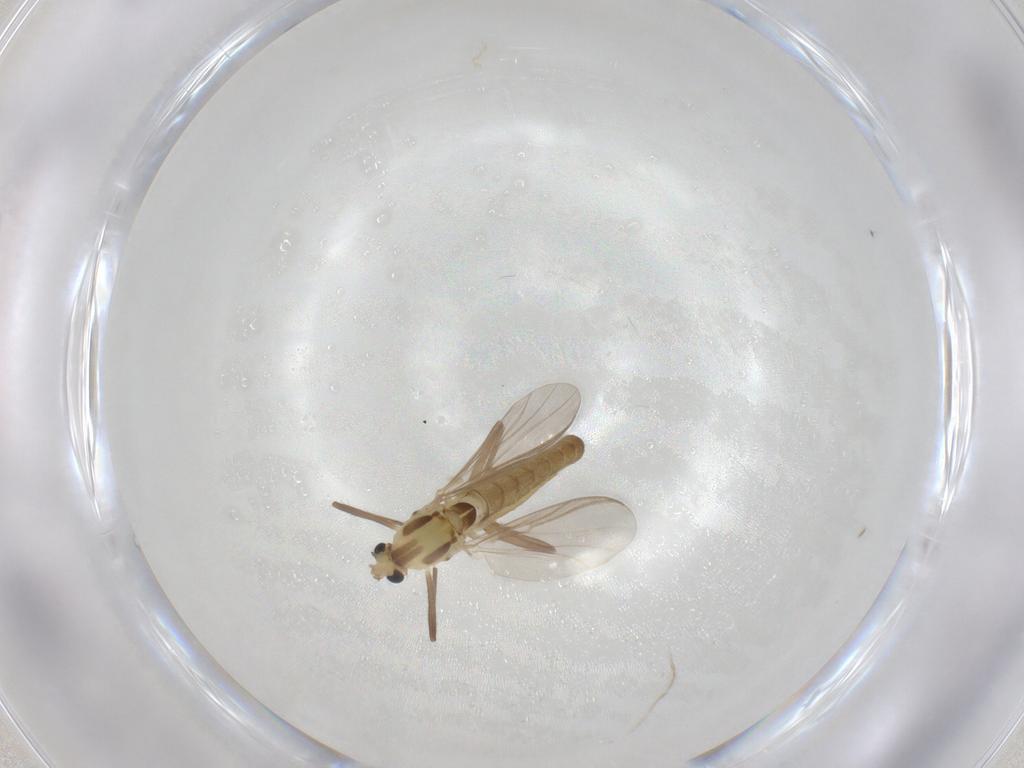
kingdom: Animalia
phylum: Arthropoda
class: Insecta
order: Diptera
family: Chironomidae
